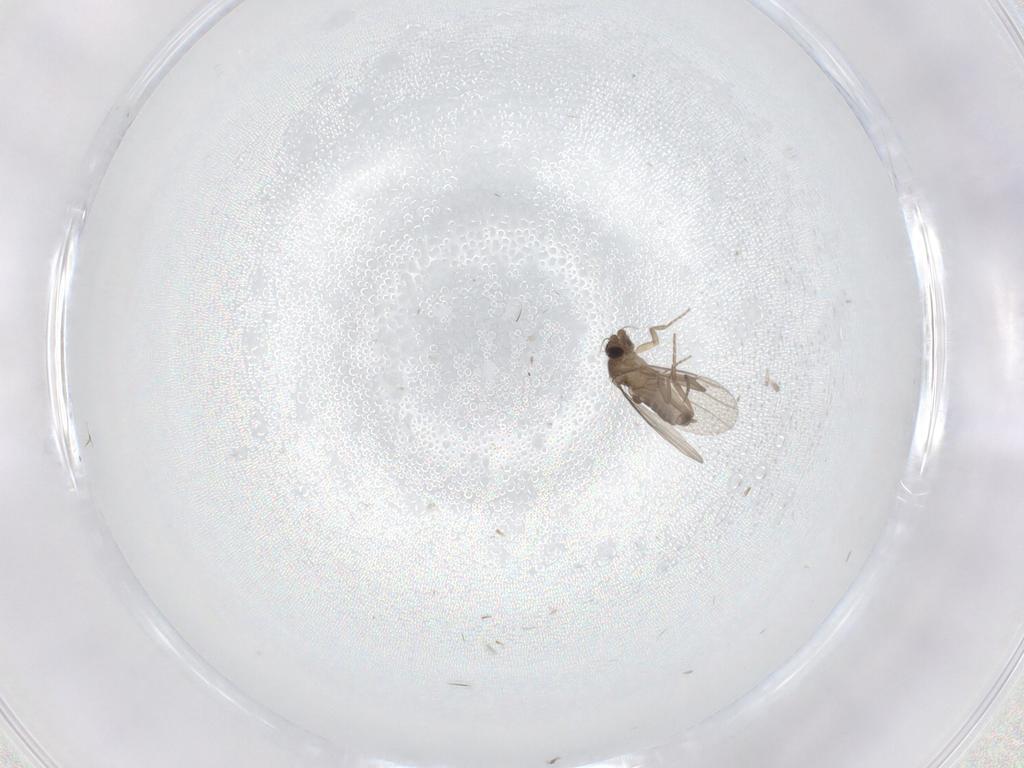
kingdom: Animalia
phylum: Arthropoda
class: Insecta
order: Diptera
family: Phoridae
